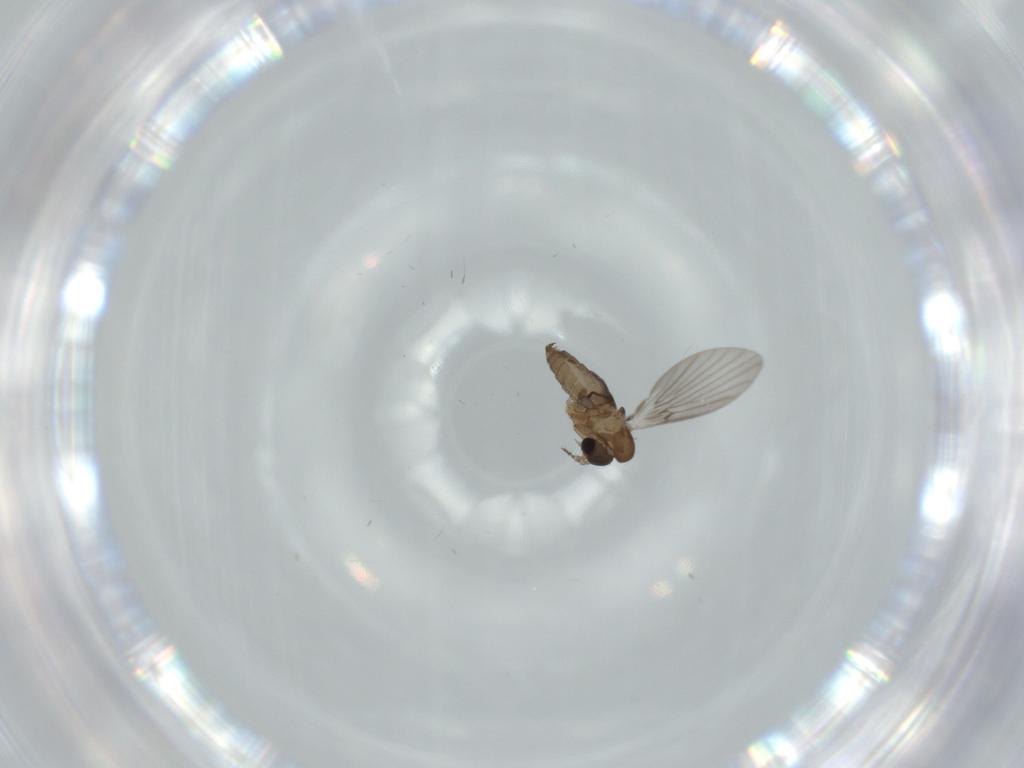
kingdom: Animalia
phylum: Arthropoda
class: Insecta
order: Diptera
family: Psychodidae
